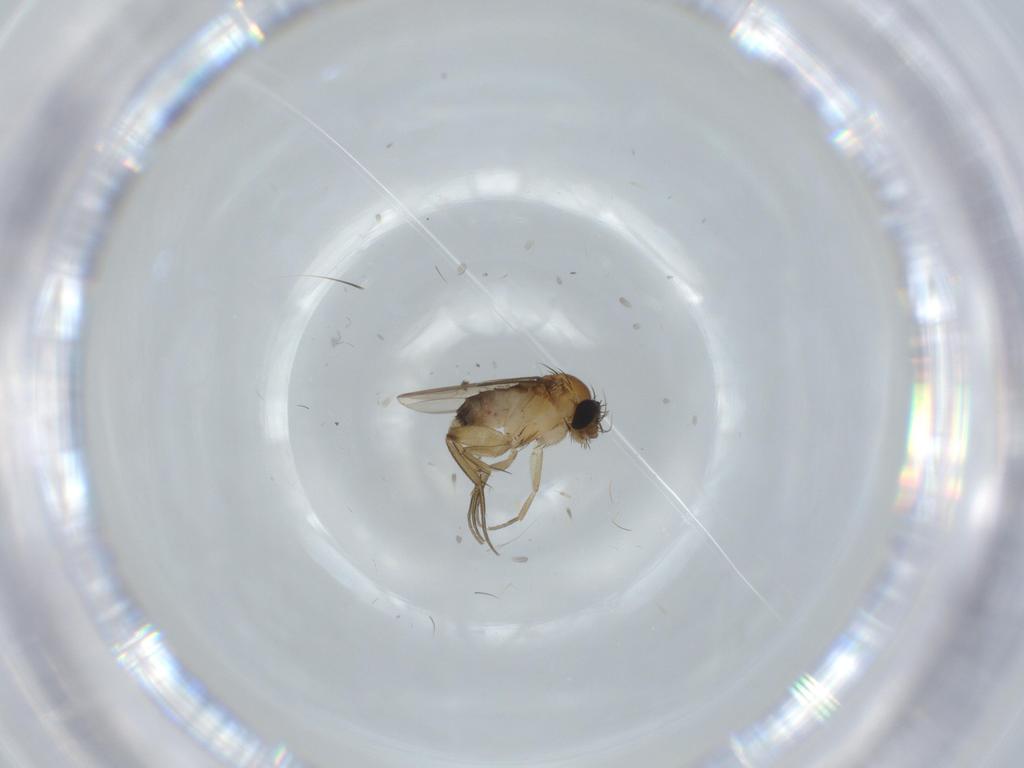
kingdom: Animalia
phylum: Arthropoda
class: Insecta
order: Diptera
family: Phoridae
